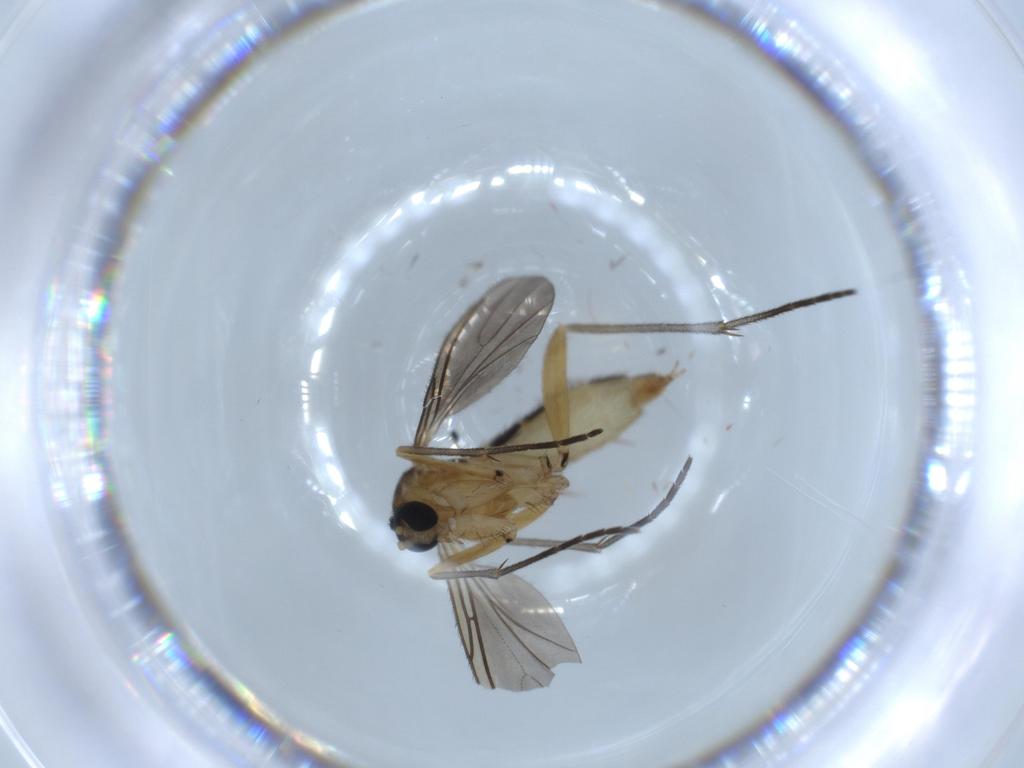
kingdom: Animalia
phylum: Arthropoda
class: Insecta
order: Diptera
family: Sciaridae
